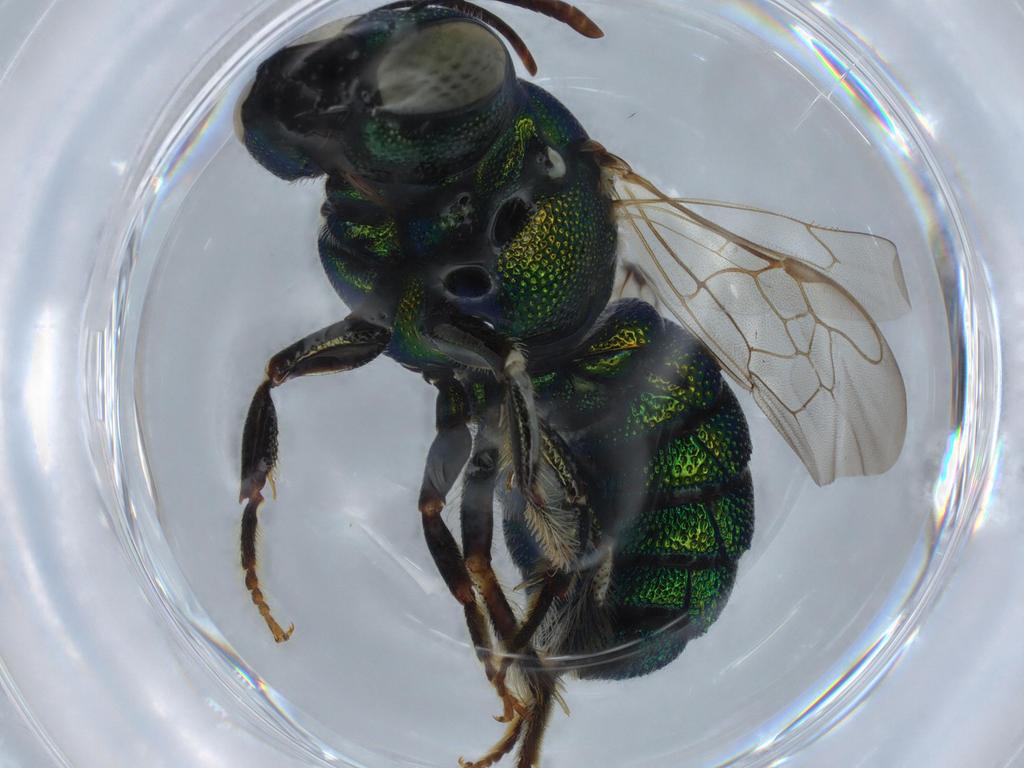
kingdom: Animalia
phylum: Arthropoda
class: Insecta
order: Hymenoptera
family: Apidae
